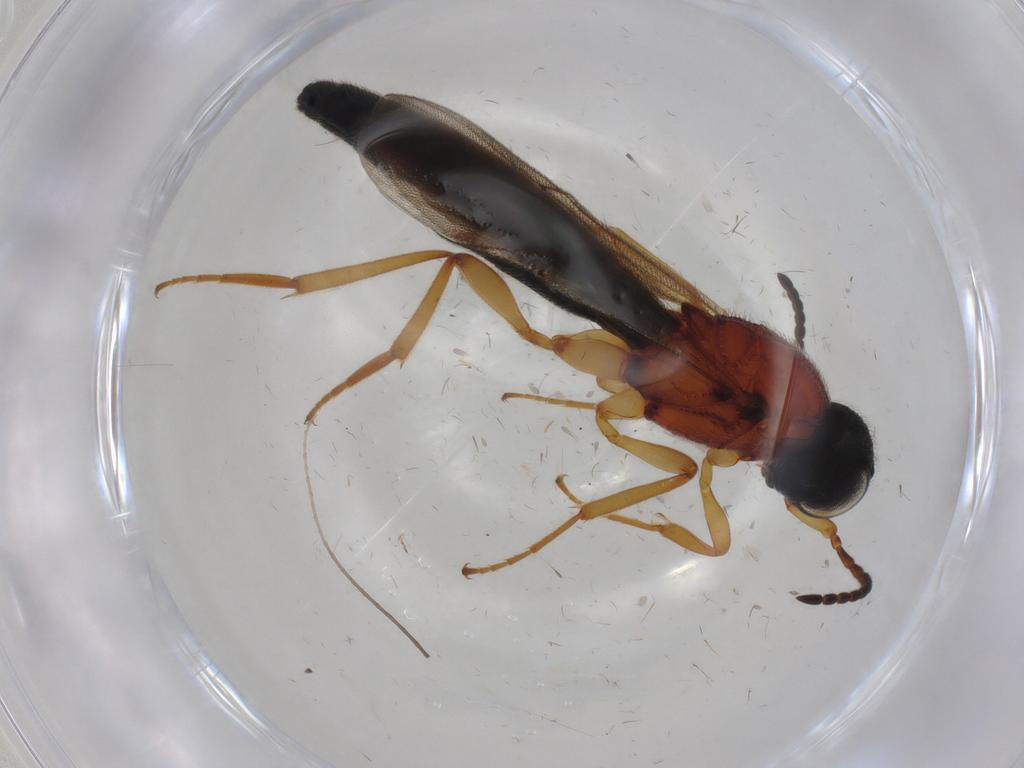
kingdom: Animalia
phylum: Arthropoda
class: Insecta
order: Hymenoptera
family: Scelionidae
